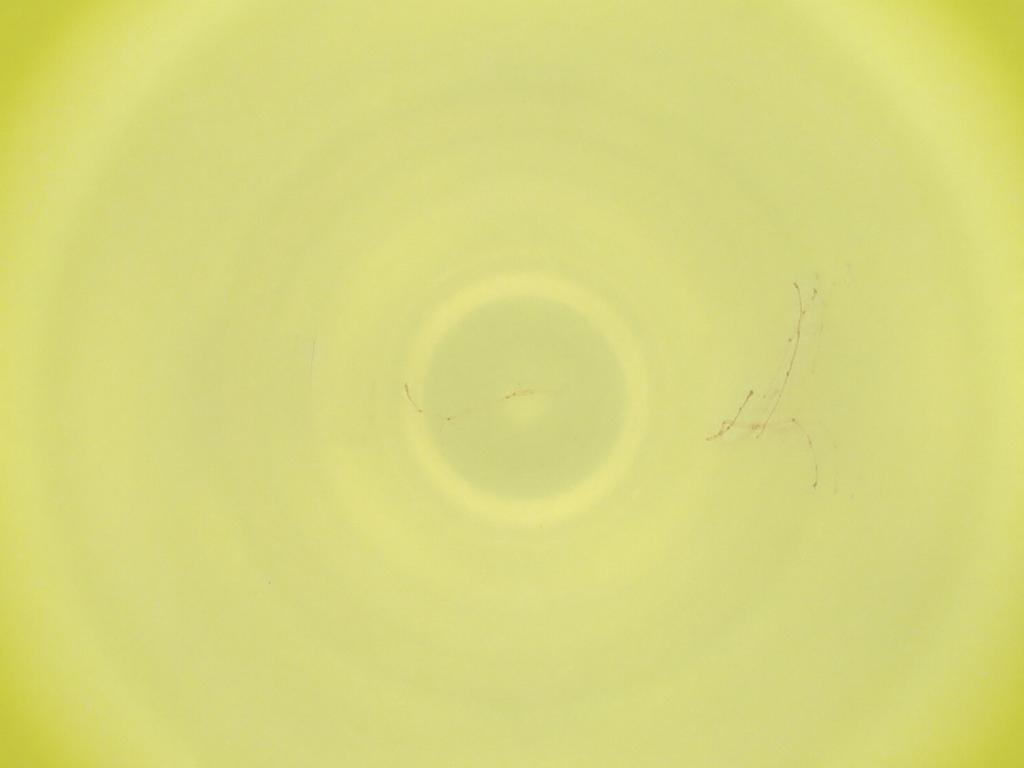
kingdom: Animalia
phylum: Arthropoda
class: Insecta
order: Diptera
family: Cecidomyiidae
